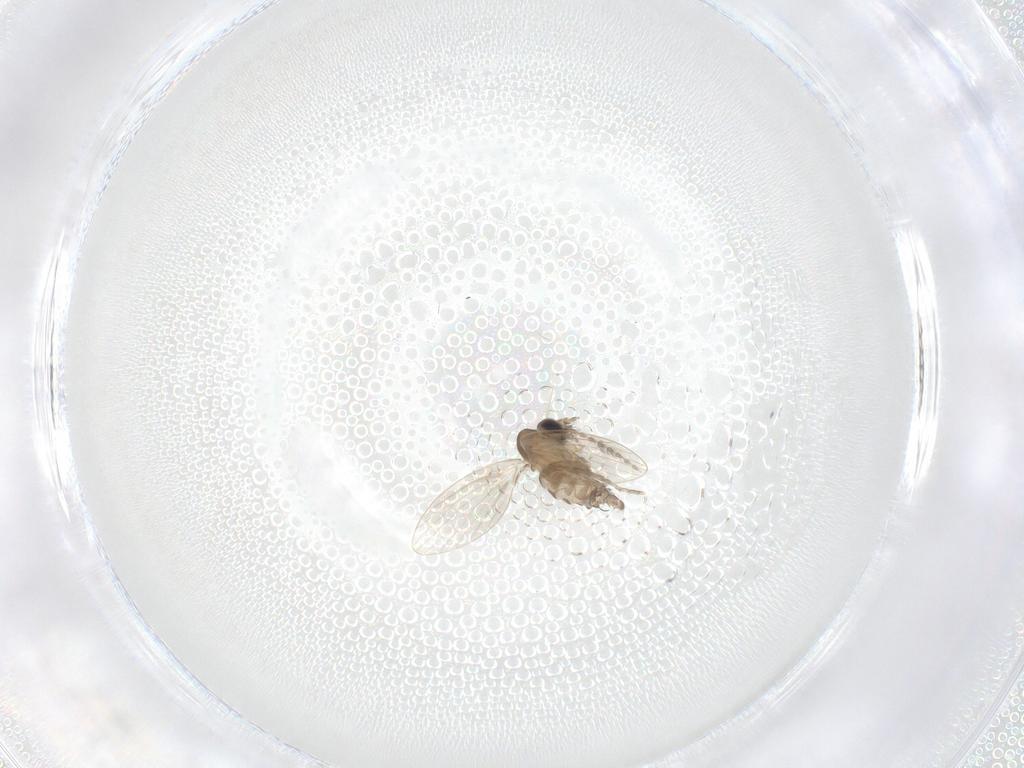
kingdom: Animalia
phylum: Arthropoda
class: Insecta
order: Diptera
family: Psychodidae
